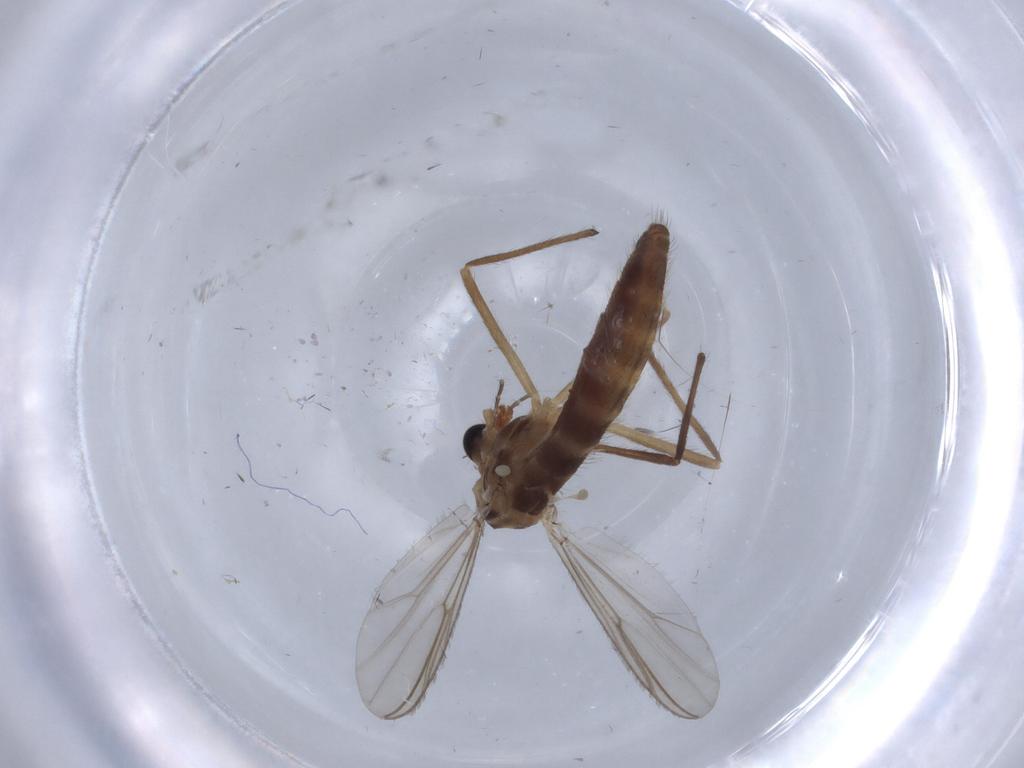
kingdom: Animalia
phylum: Arthropoda
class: Insecta
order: Diptera
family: Chironomidae
